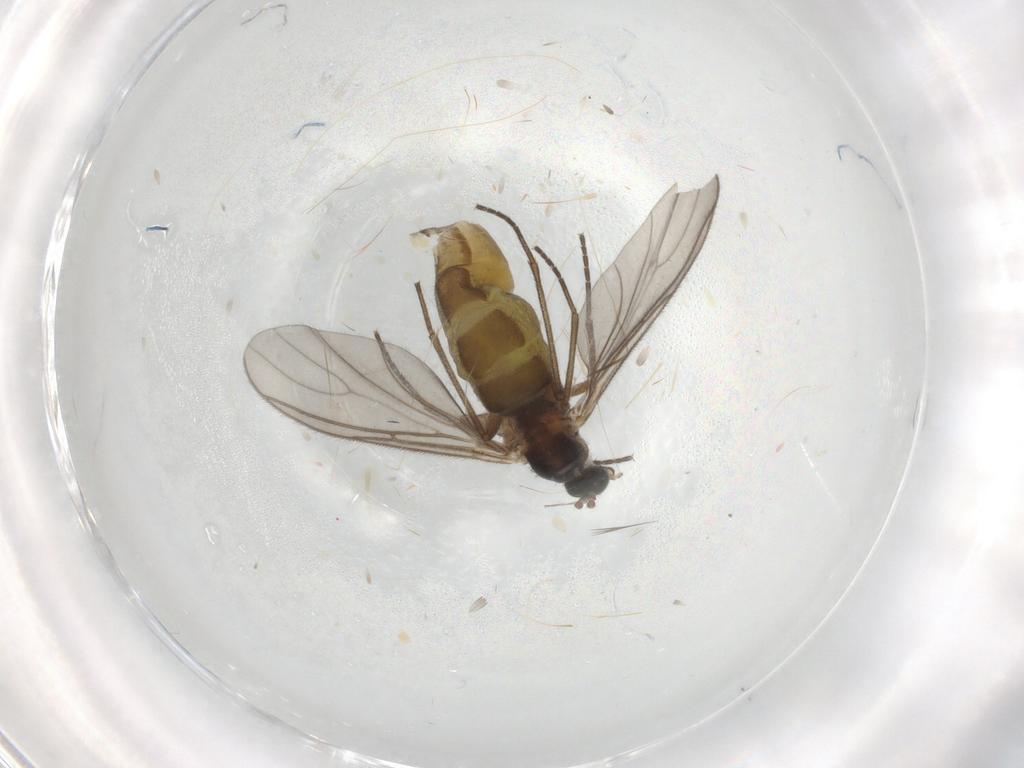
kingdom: Animalia
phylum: Arthropoda
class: Insecta
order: Diptera
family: Sciaridae
